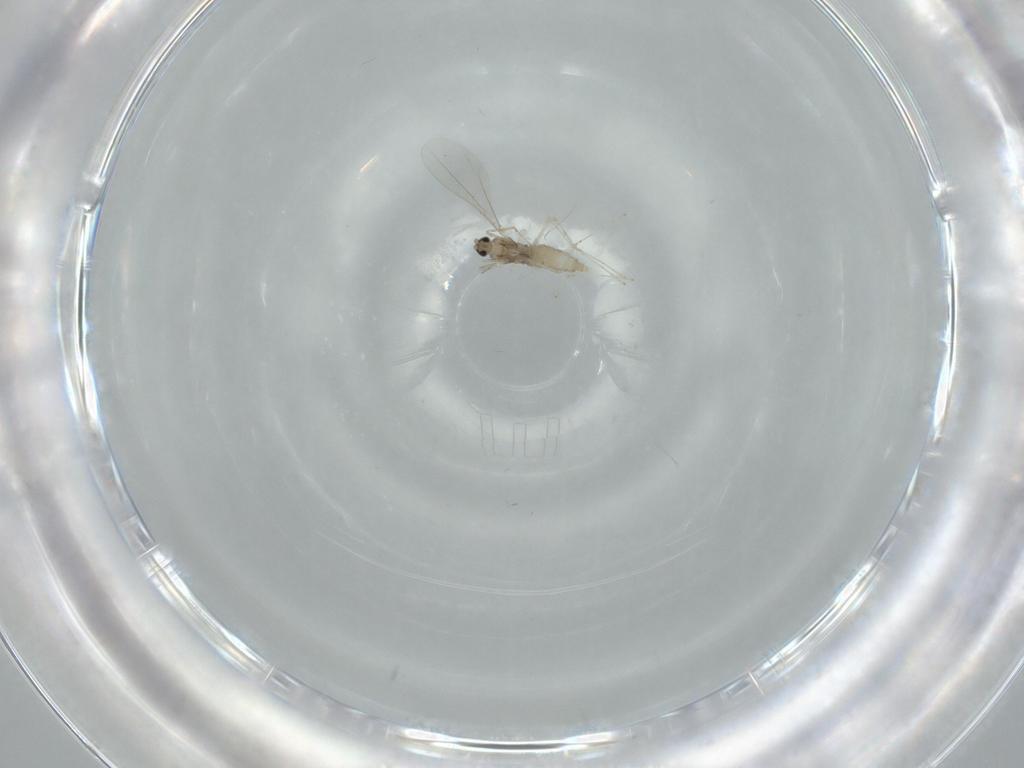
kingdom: Animalia
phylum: Arthropoda
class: Insecta
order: Diptera
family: Cecidomyiidae
